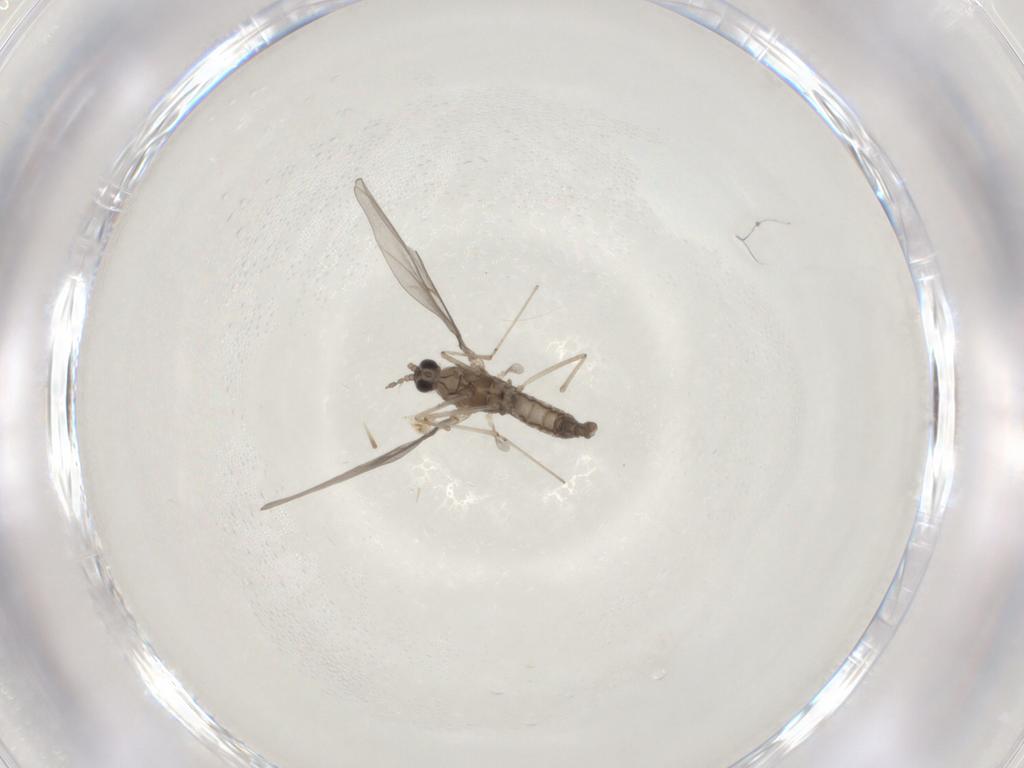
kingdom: Animalia
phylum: Arthropoda
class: Insecta
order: Diptera
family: Cecidomyiidae
